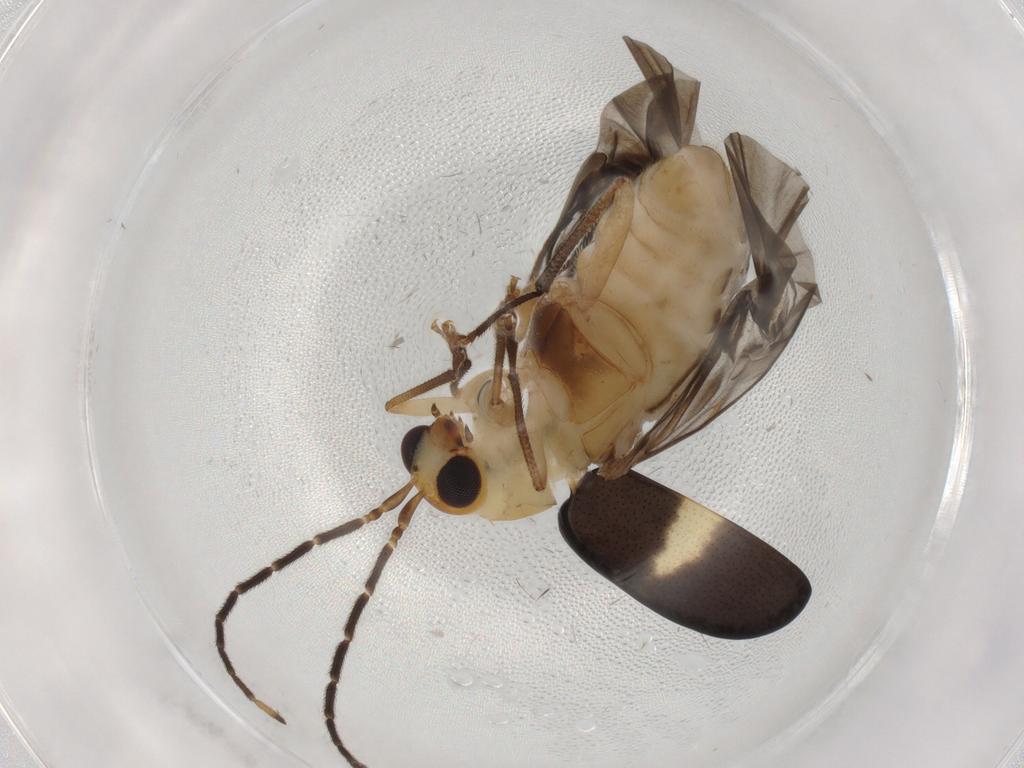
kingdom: Animalia
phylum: Arthropoda
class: Insecta
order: Coleoptera
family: Chrysomelidae
